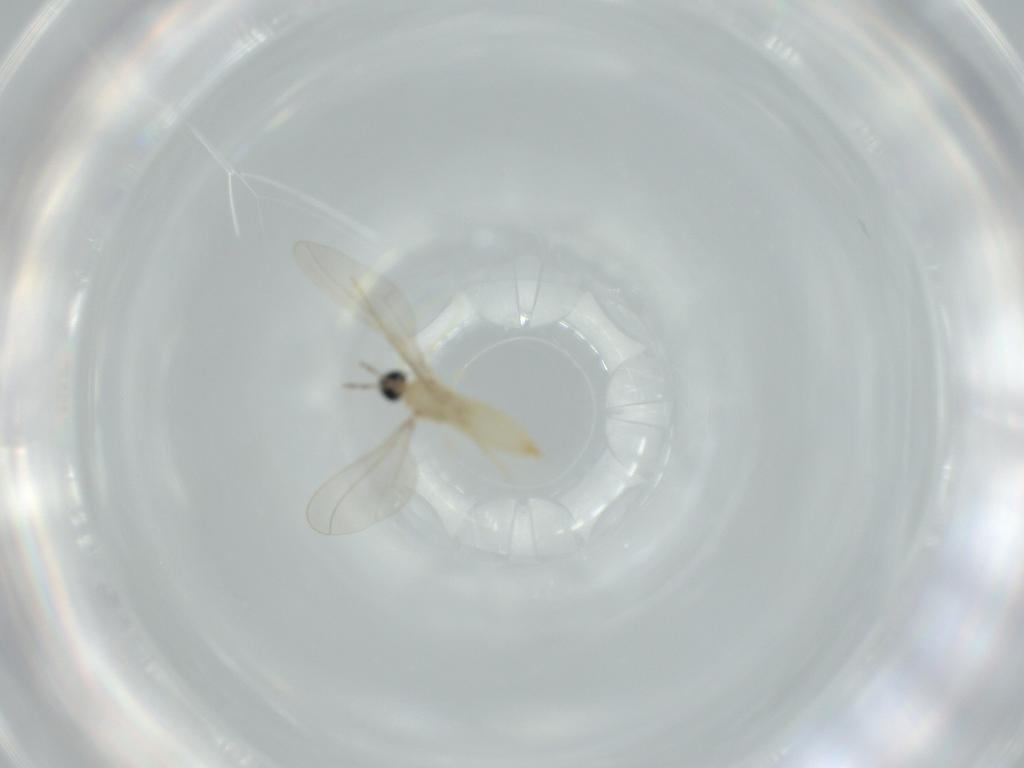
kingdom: Animalia
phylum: Arthropoda
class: Insecta
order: Diptera
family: Cecidomyiidae
